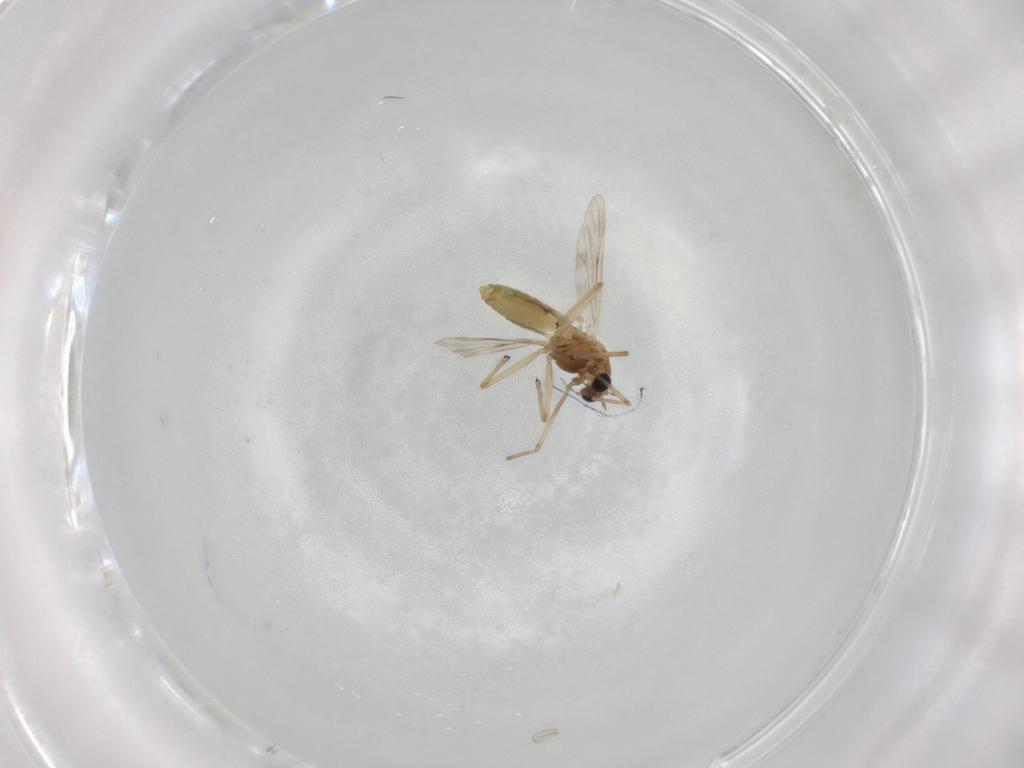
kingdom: Animalia
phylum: Arthropoda
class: Insecta
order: Diptera
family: Chironomidae
